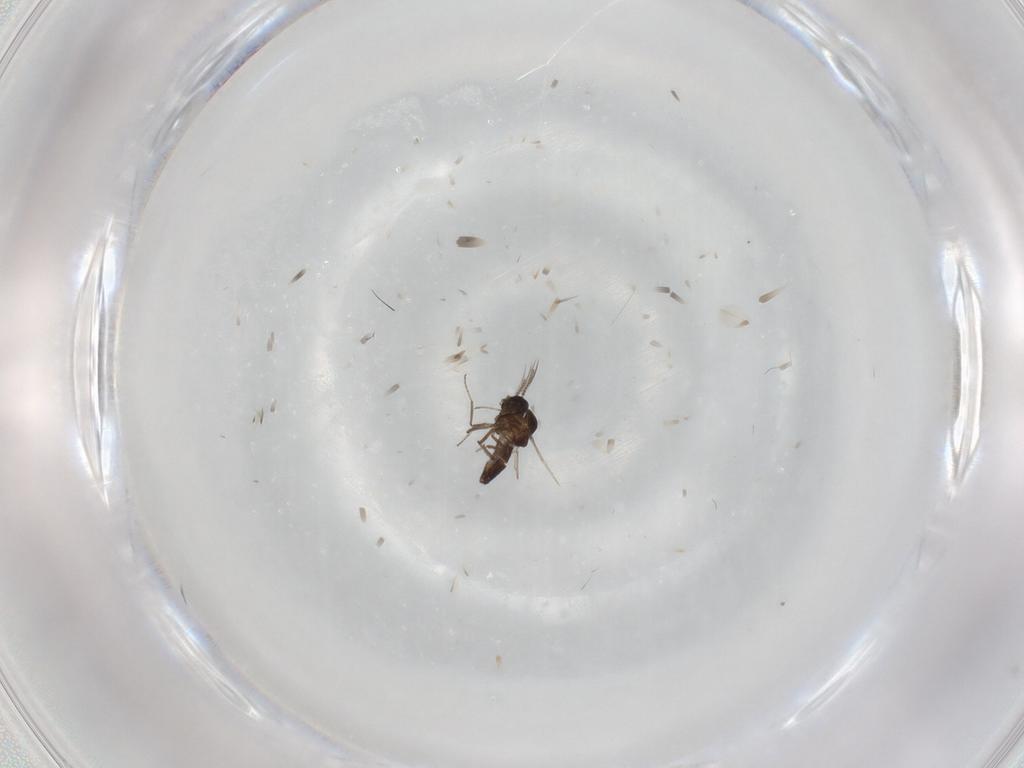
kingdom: Animalia
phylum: Arthropoda
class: Insecta
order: Diptera
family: Ceratopogonidae
